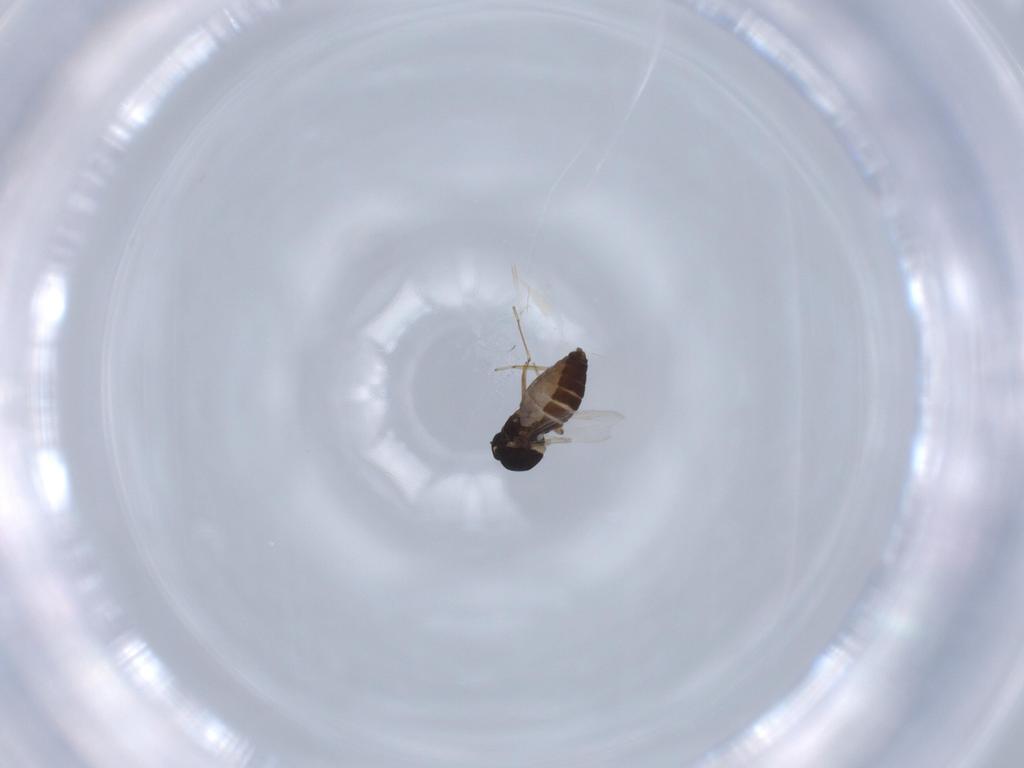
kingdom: Animalia
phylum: Arthropoda
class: Insecta
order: Diptera
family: Ceratopogonidae
